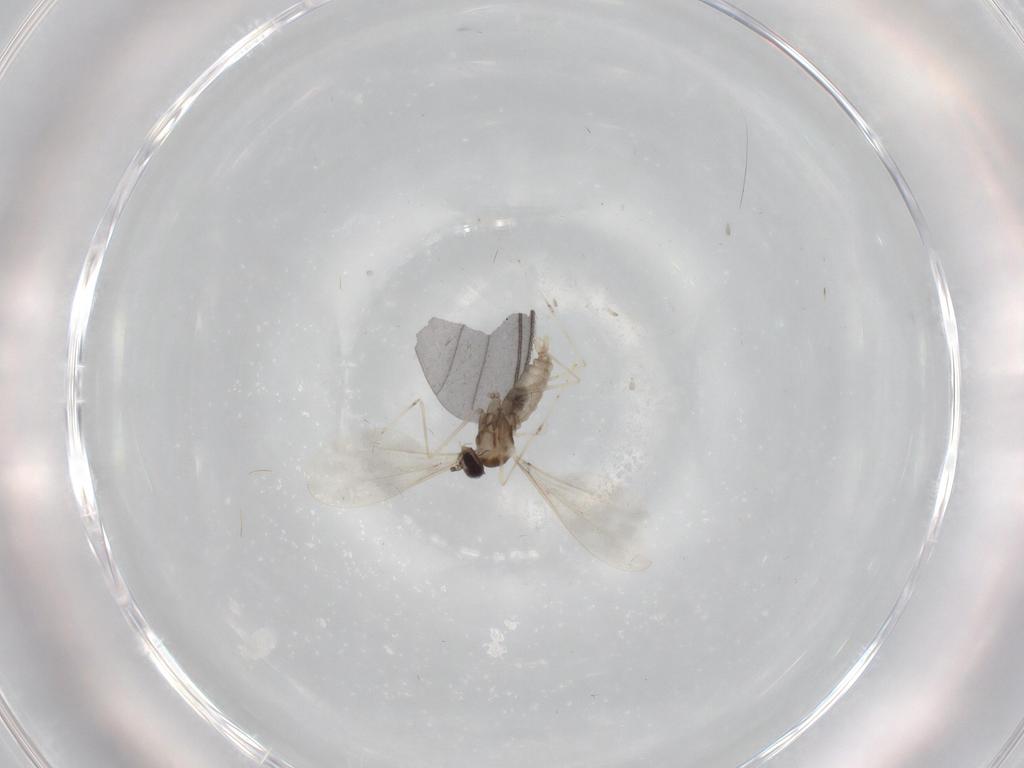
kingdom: Animalia
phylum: Arthropoda
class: Insecta
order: Diptera
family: Cecidomyiidae
